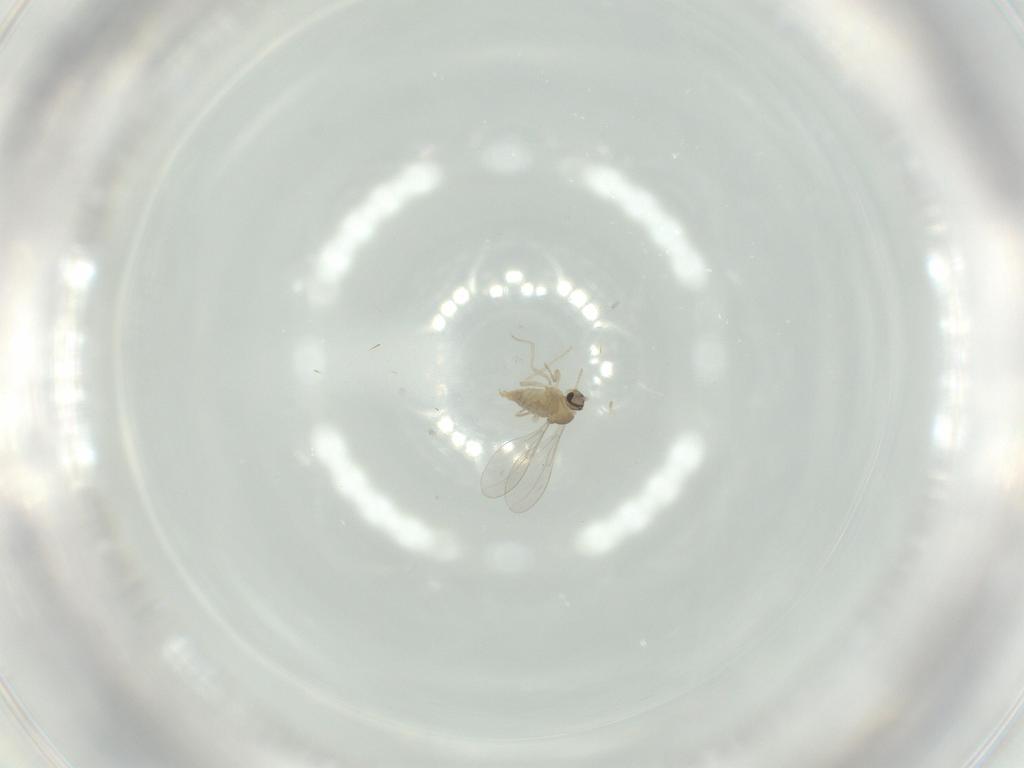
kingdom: Animalia
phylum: Arthropoda
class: Insecta
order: Diptera
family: Cecidomyiidae
